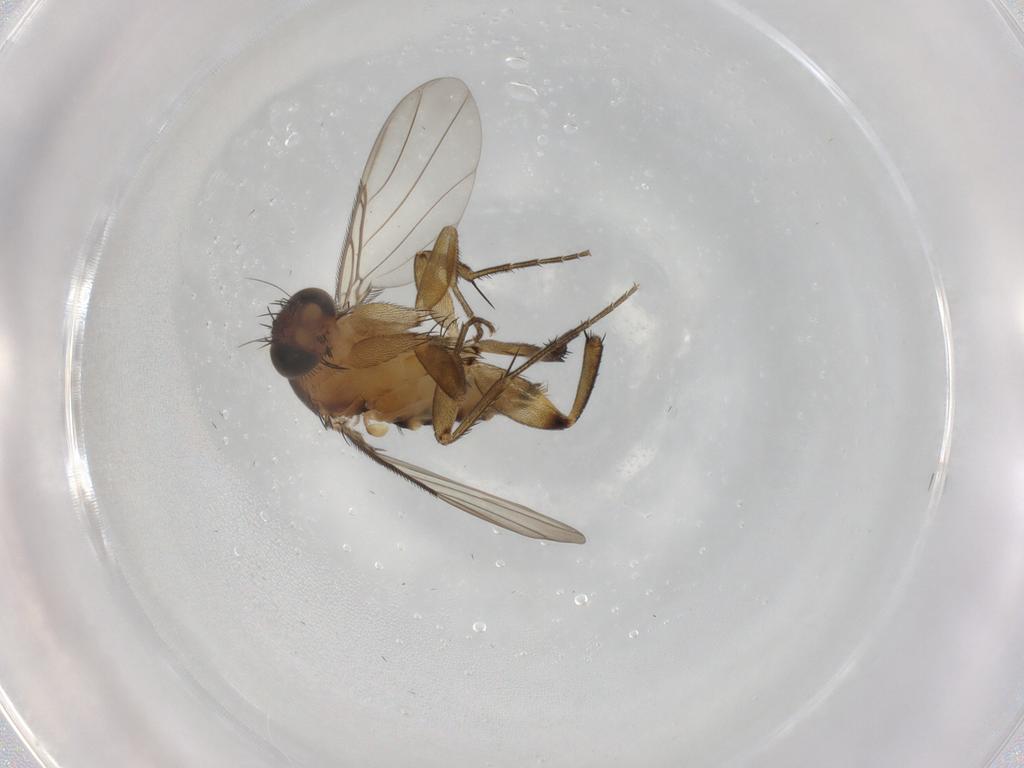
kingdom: Animalia
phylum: Arthropoda
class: Insecta
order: Diptera
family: Phoridae
